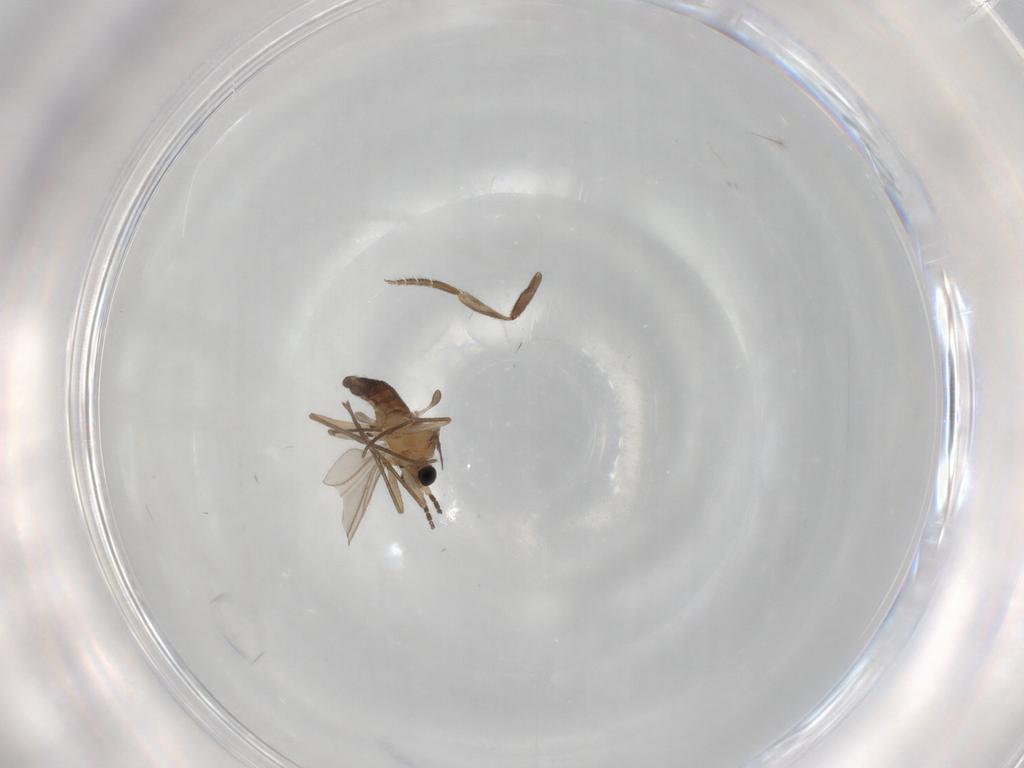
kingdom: Animalia
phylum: Arthropoda
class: Insecta
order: Diptera
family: Sciaridae
